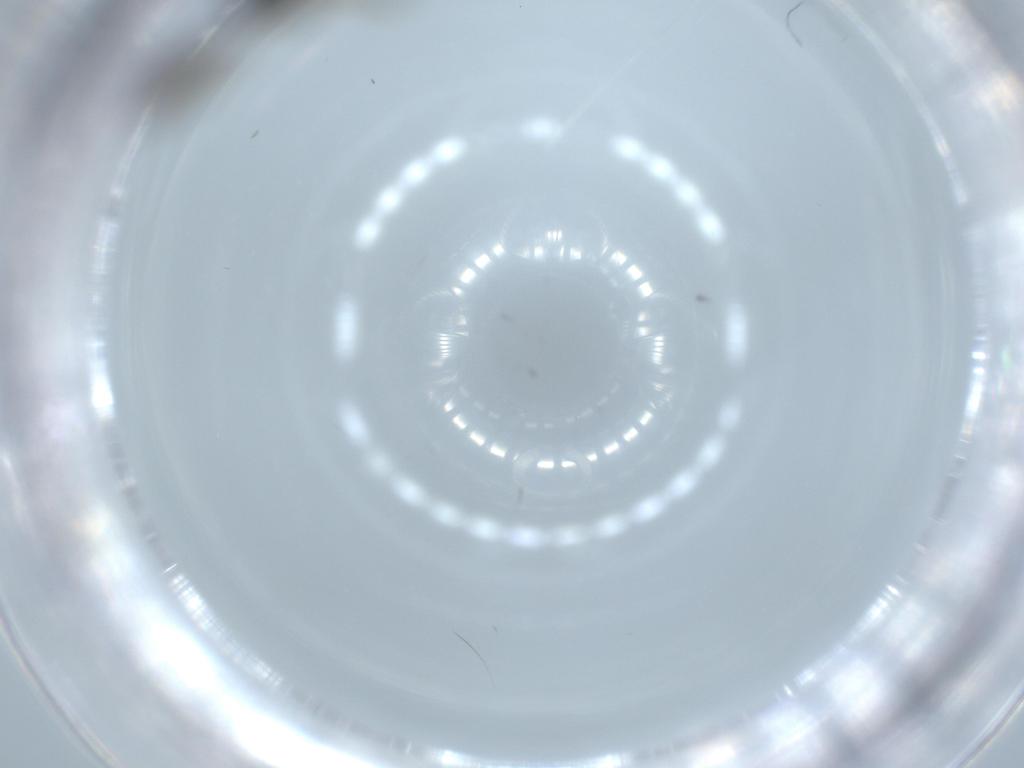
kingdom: Animalia
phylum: Arthropoda
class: Insecta
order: Diptera
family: Sciaridae
